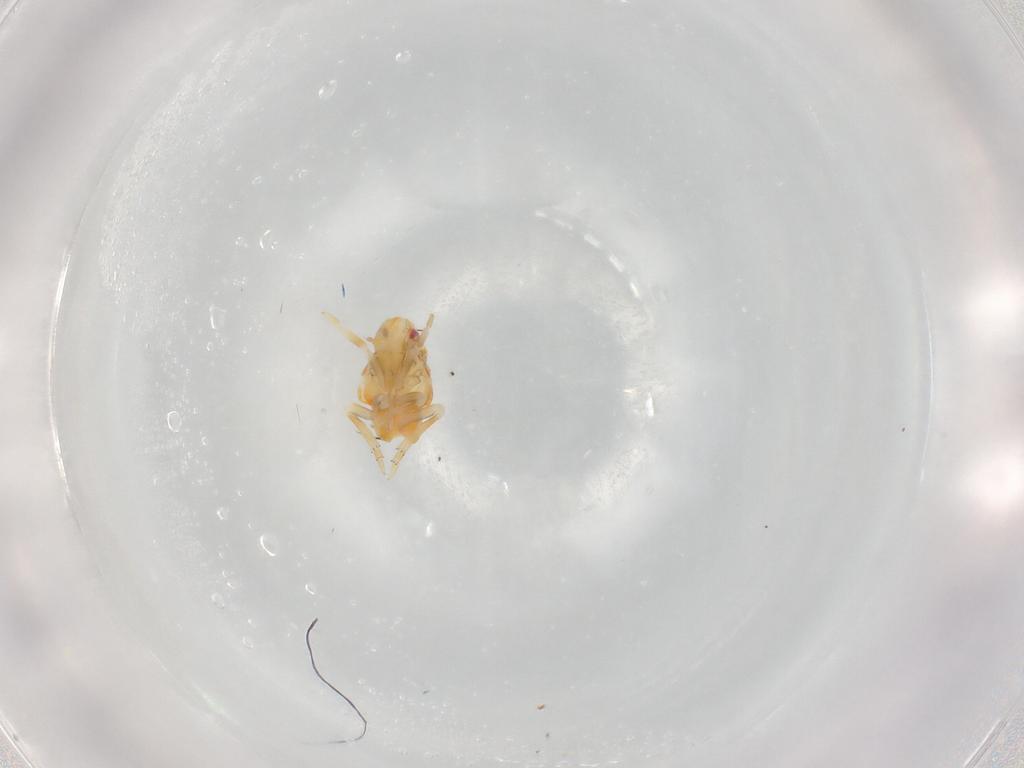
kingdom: Animalia
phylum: Arthropoda
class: Insecta
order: Hemiptera
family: Flatidae
